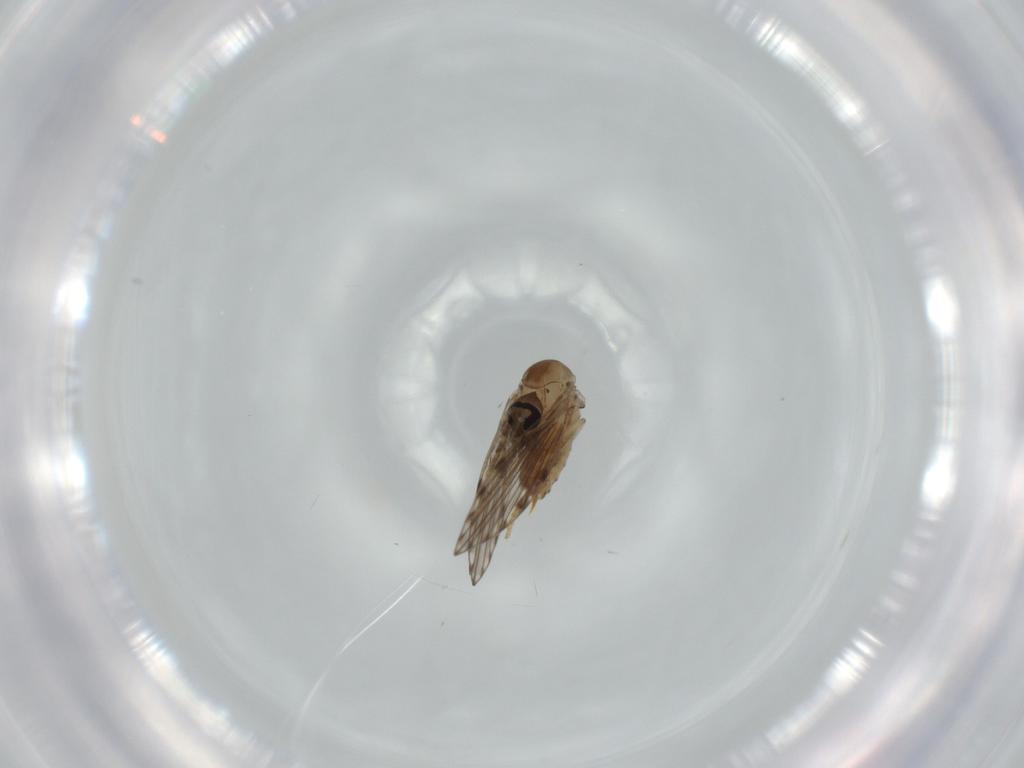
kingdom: Animalia
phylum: Arthropoda
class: Insecta
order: Diptera
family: Psychodidae
